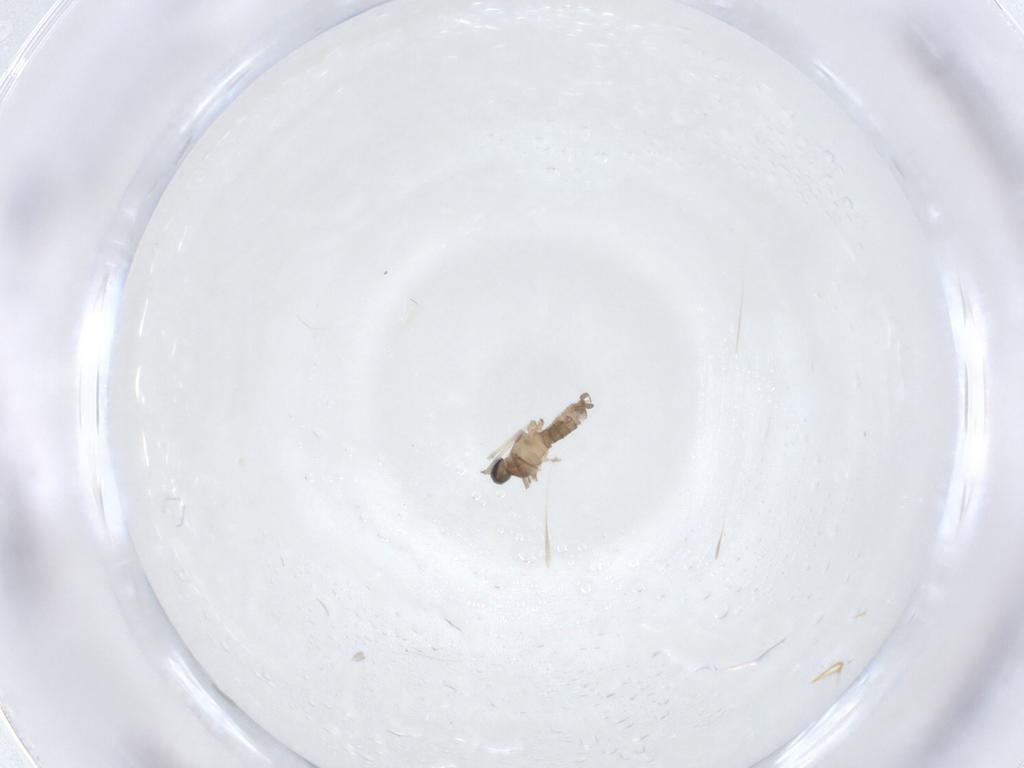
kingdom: Animalia
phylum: Arthropoda
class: Insecta
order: Diptera
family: Cecidomyiidae
